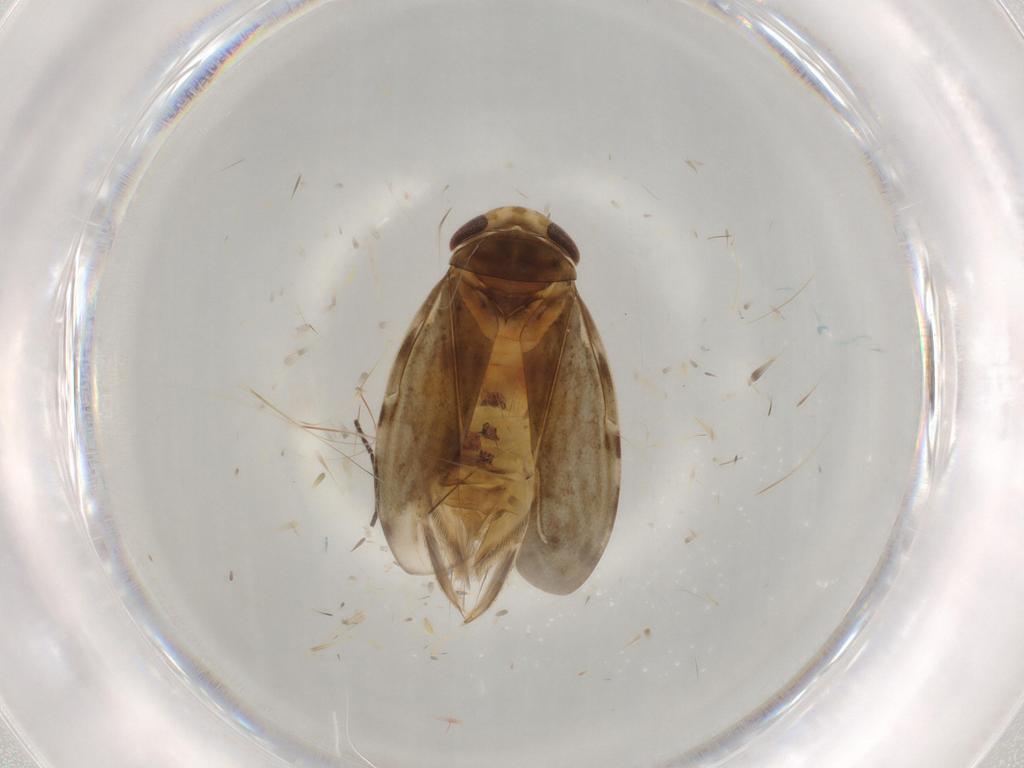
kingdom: Animalia
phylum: Arthropoda
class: Insecta
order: Hemiptera
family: Corixidae
